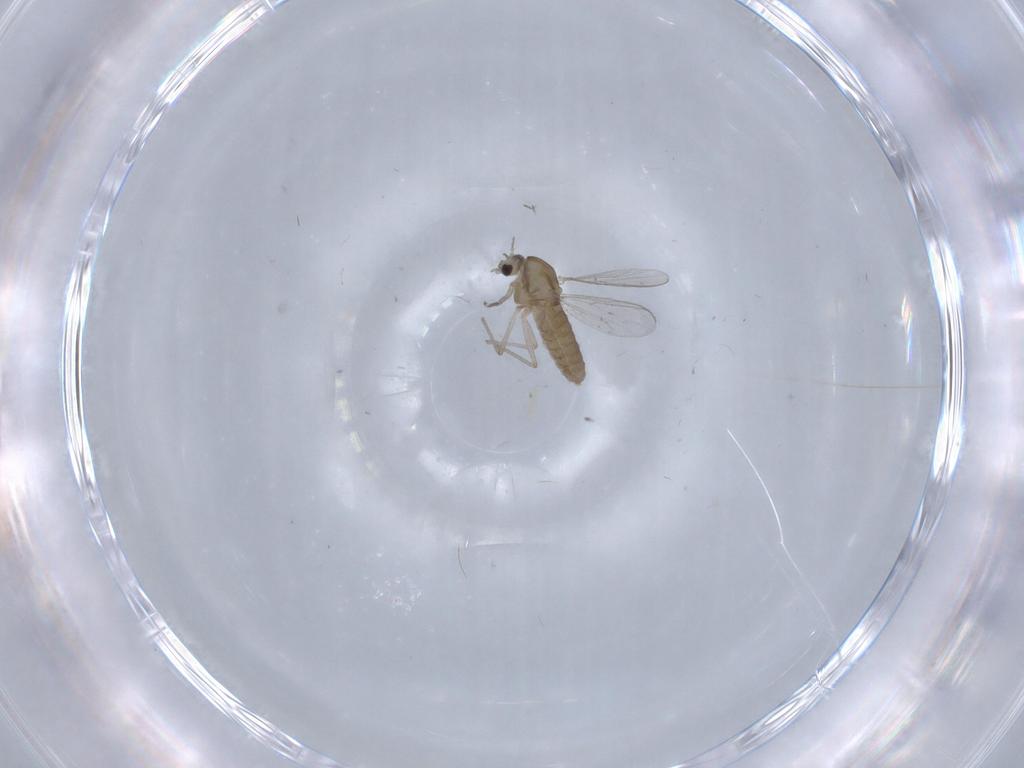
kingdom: Animalia
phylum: Arthropoda
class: Insecta
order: Diptera
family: Chironomidae
